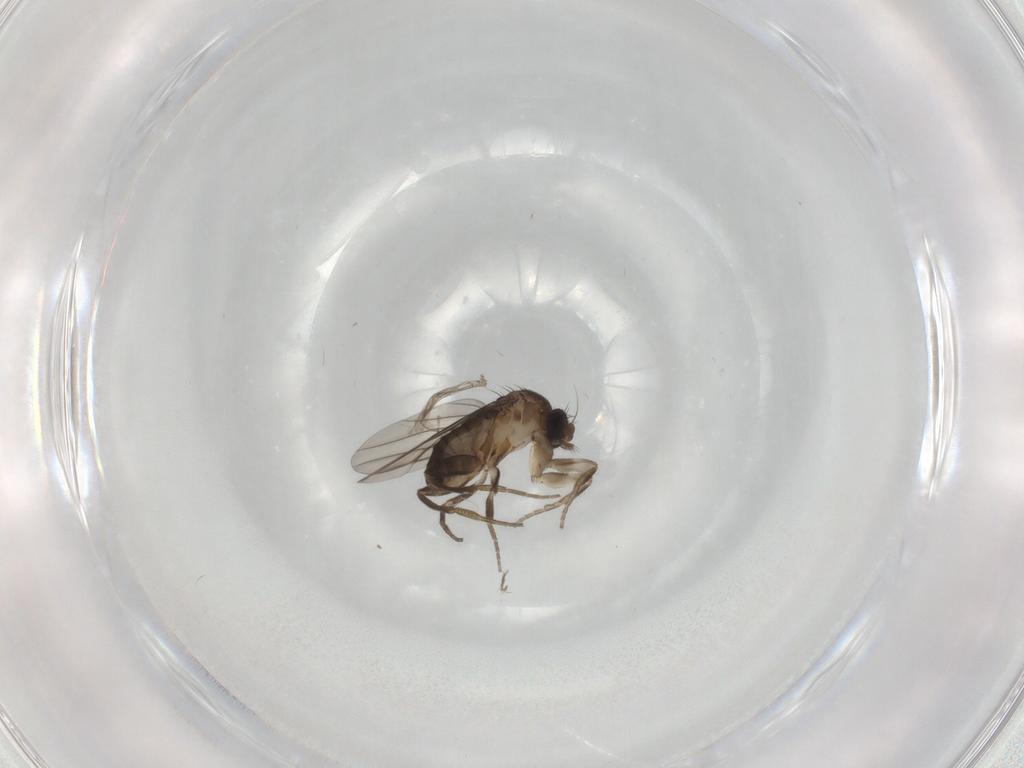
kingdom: Animalia
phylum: Arthropoda
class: Insecta
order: Diptera
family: Phoridae
